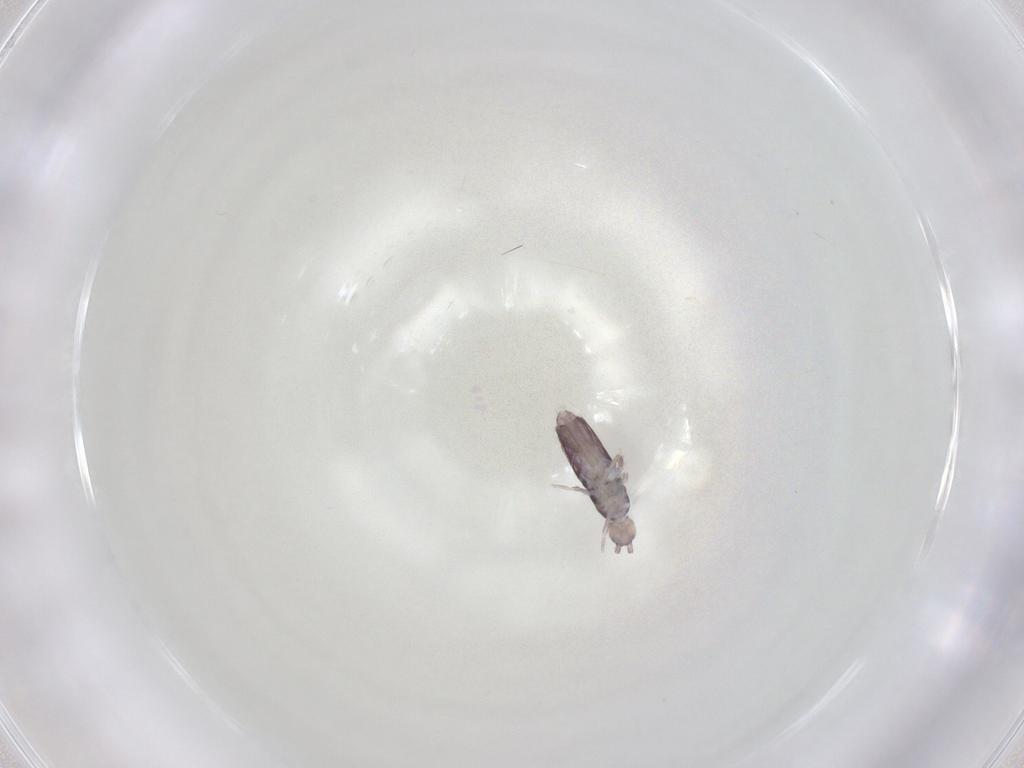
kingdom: Animalia
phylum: Arthropoda
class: Collembola
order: Entomobryomorpha
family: Entomobryidae
